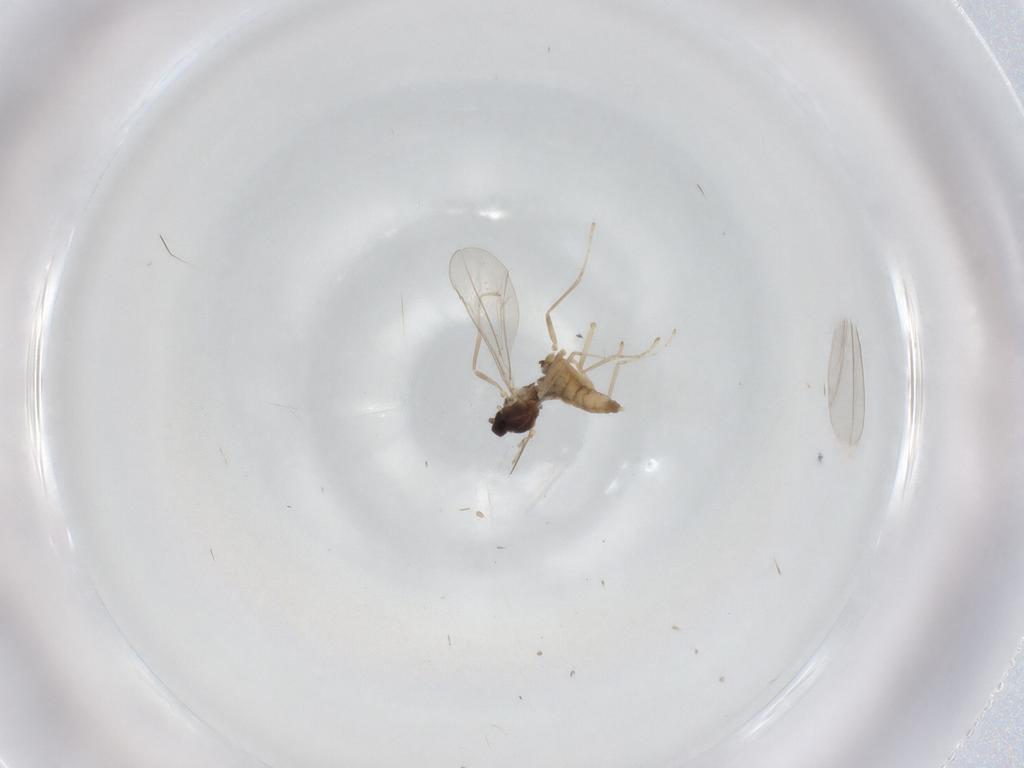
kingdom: Animalia
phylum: Arthropoda
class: Insecta
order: Diptera
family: Cecidomyiidae
